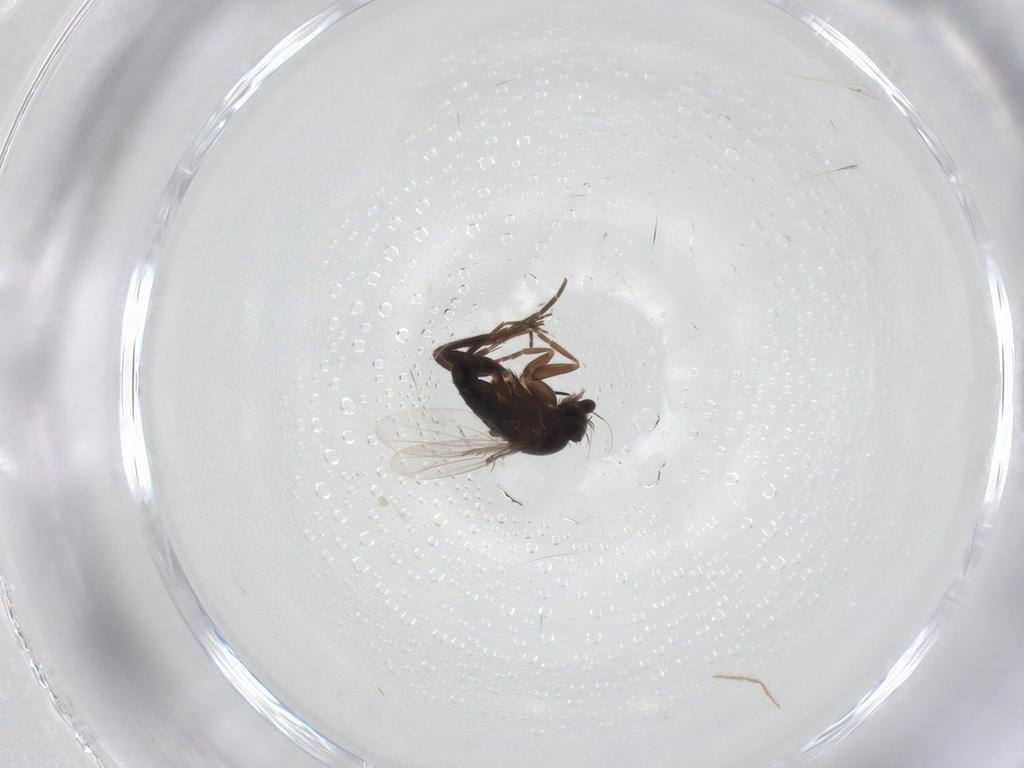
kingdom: Animalia
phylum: Arthropoda
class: Insecta
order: Diptera
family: Phoridae
